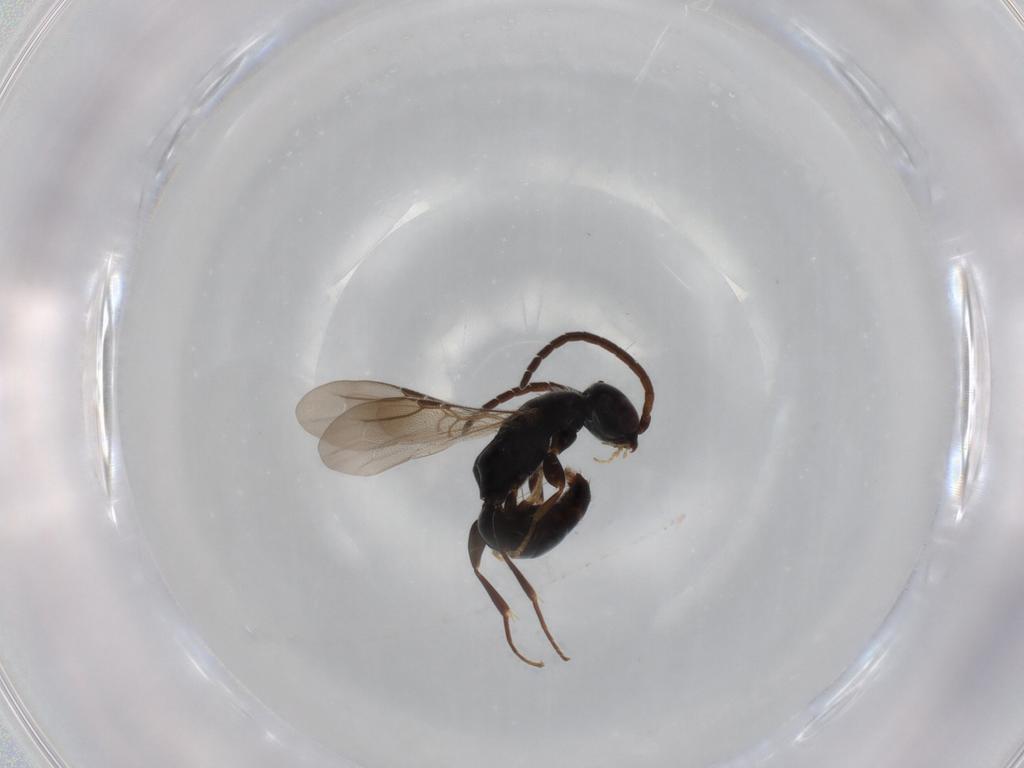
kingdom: Animalia
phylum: Arthropoda
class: Insecta
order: Hymenoptera
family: Bethylidae
